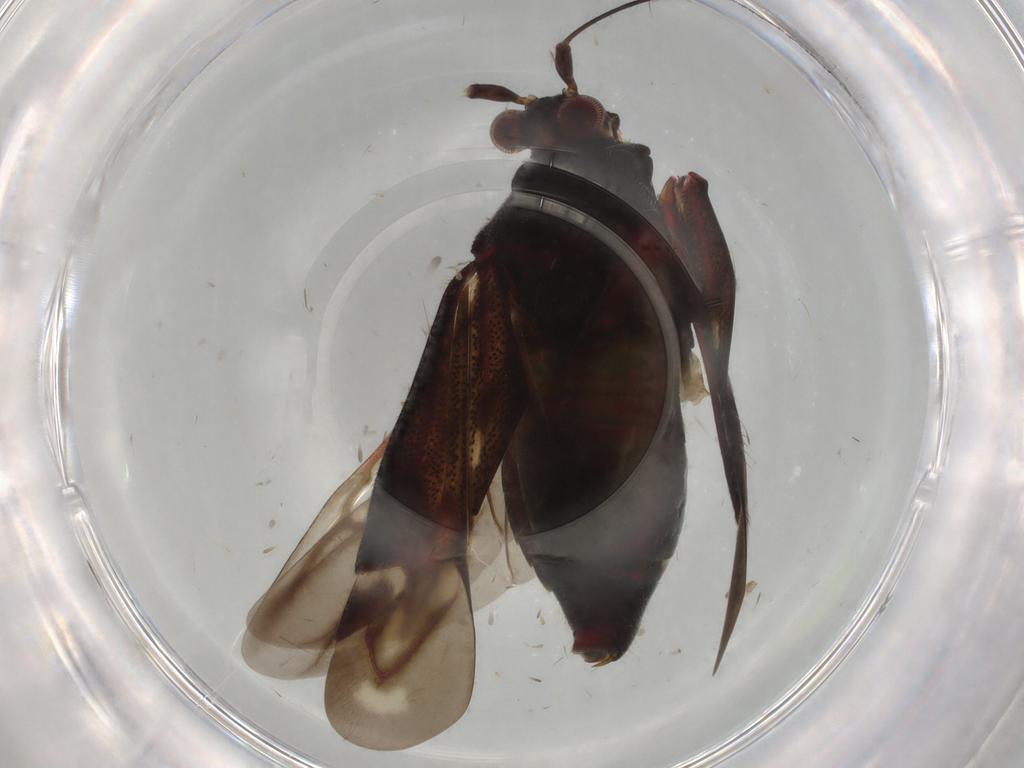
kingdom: Animalia
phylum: Arthropoda
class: Insecta
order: Hemiptera
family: Miridae
